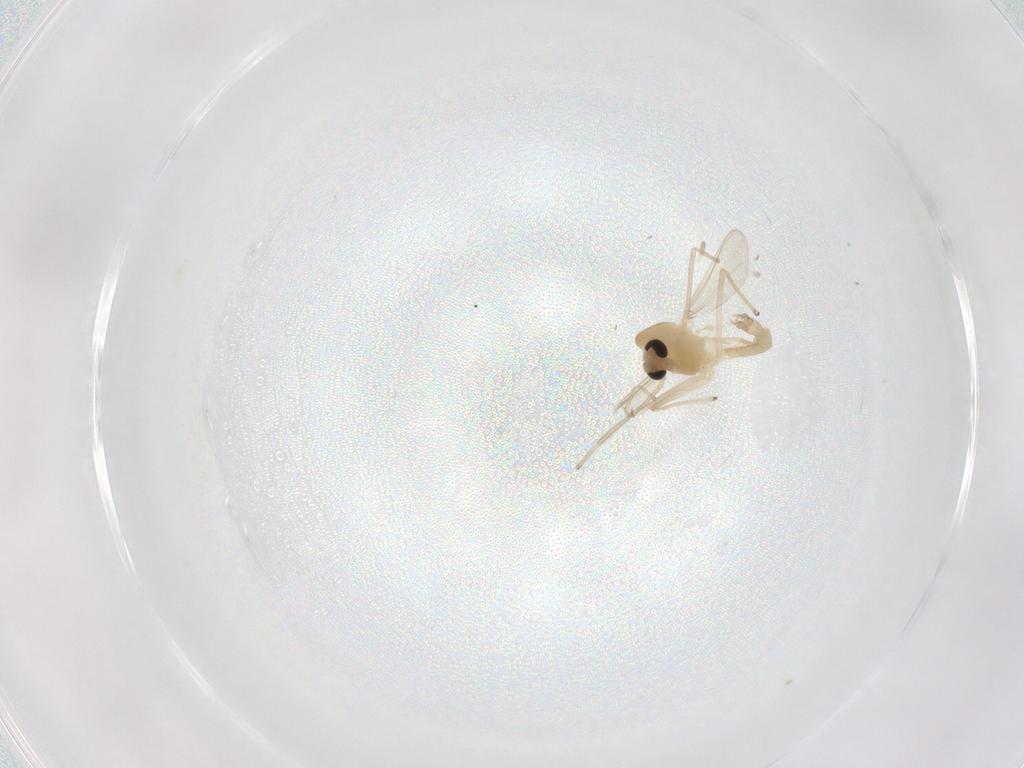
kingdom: Animalia
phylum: Arthropoda
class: Insecta
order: Diptera
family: Chironomidae
